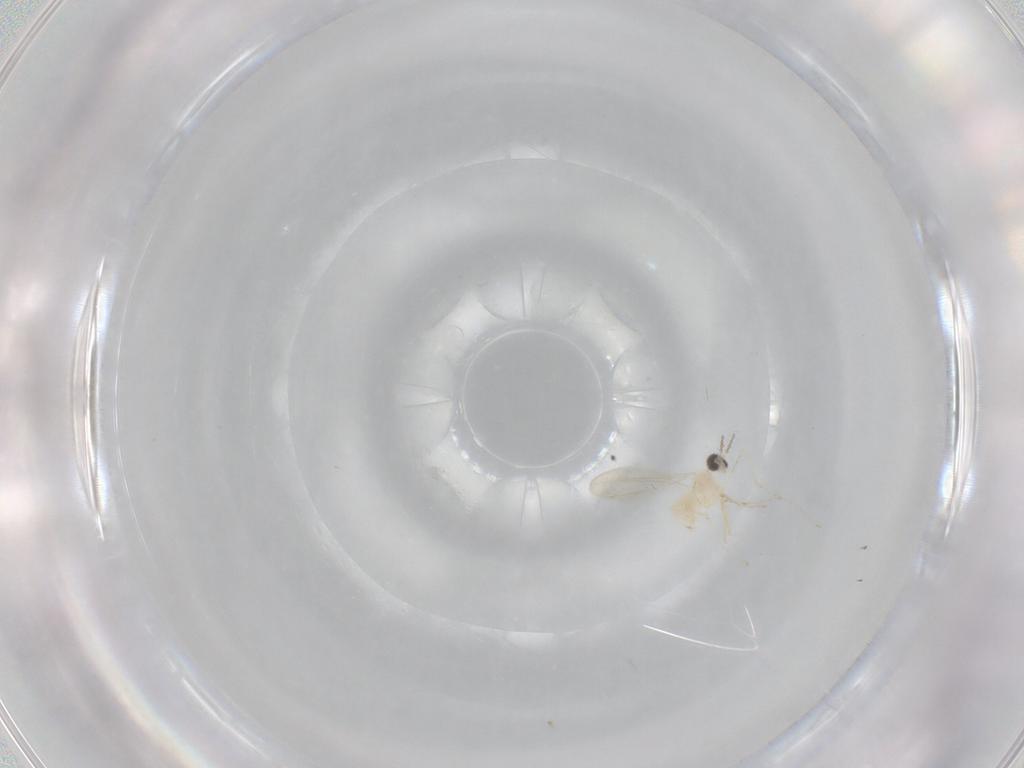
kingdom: Animalia
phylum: Arthropoda
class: Insecta
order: Diptera
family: Cecidomyiidae
